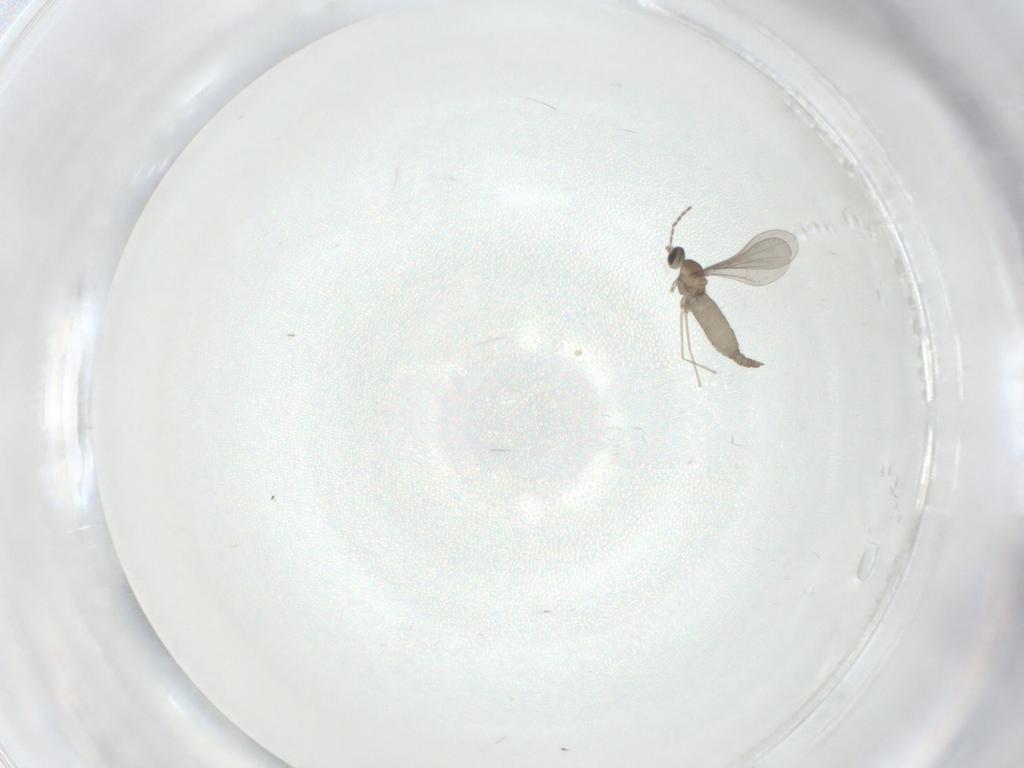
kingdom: Animalia
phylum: Arthropoda
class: Insecta
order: Diptera
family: Cecidomyiidae
